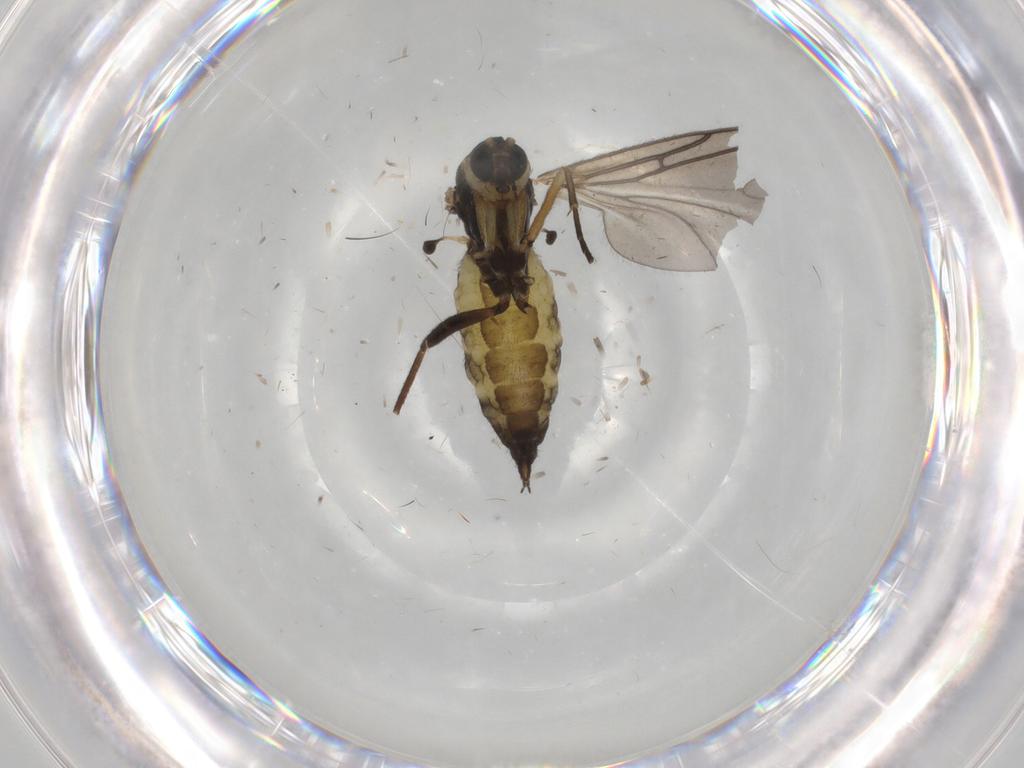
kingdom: Animalia
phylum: Arthropoda
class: Insecta
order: Diptera
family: Sciaridae
